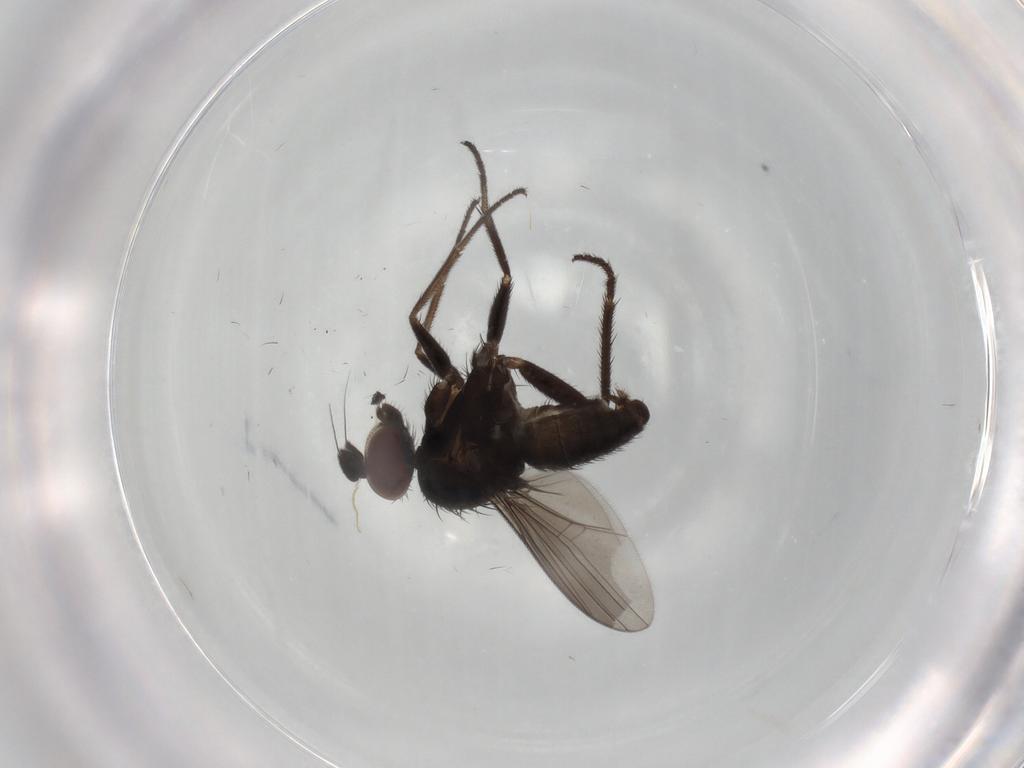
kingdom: Animalia
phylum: Arthropoda
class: Insecta
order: Diptera
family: Dolichopodidae
